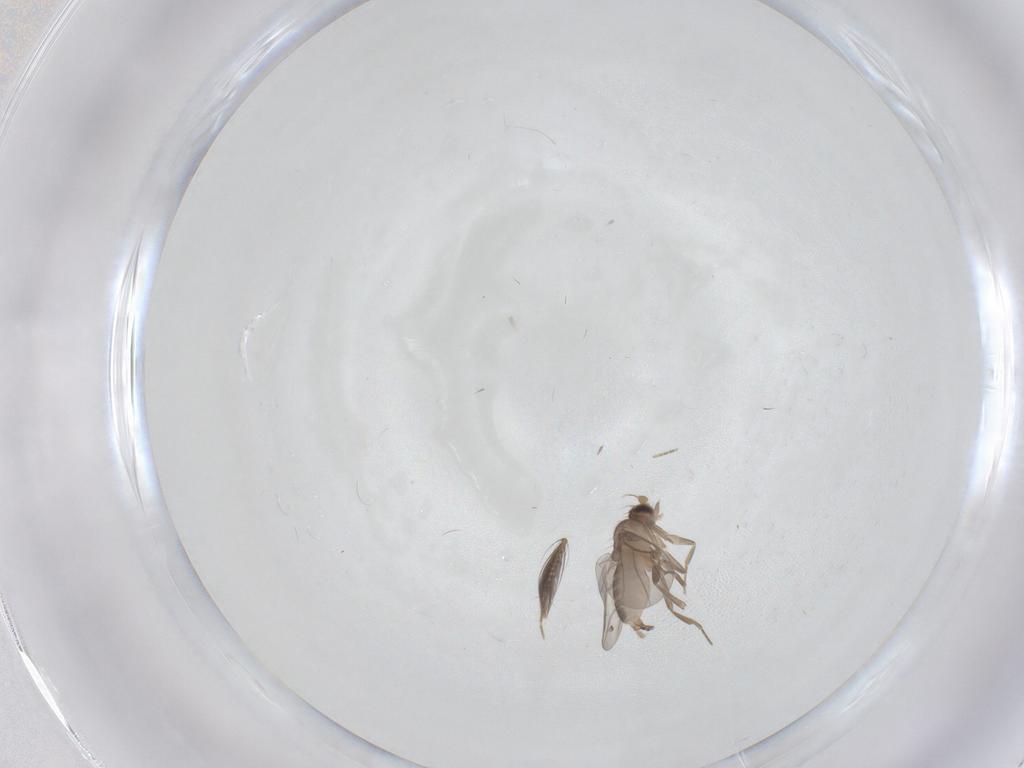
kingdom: Animalia
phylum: Arthropoda
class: Insecta
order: Diptera
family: Ceratopogonidae
